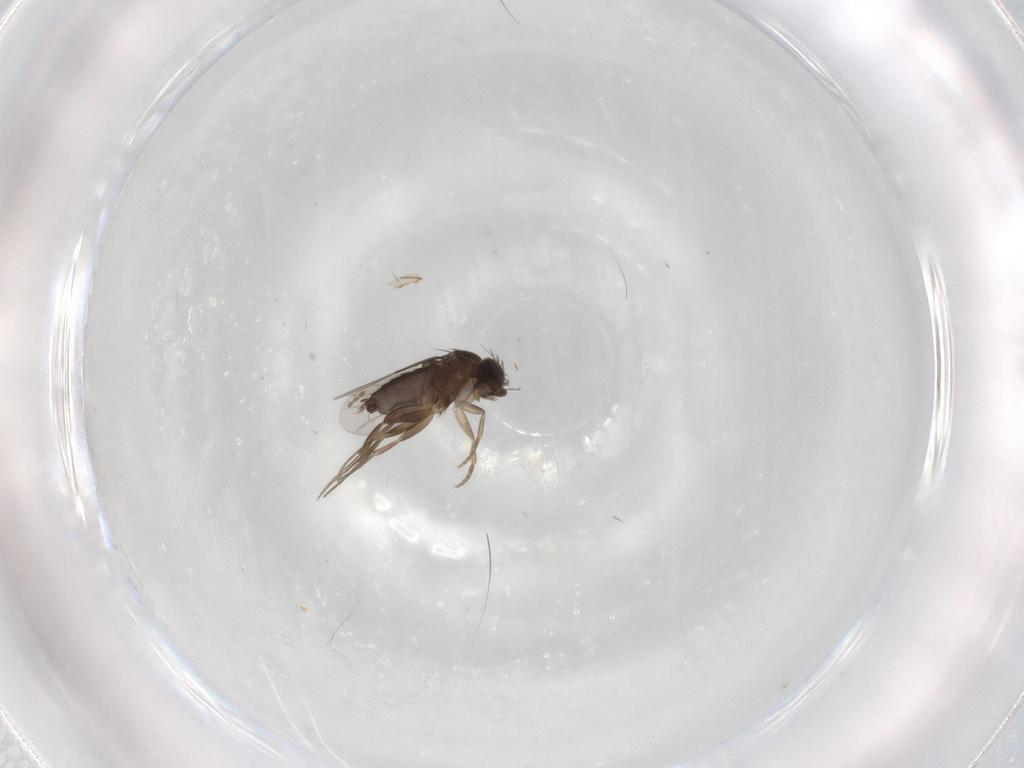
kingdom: Animalia
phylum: Arthropoda
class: Insecta
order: Diptera
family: Phoridae
